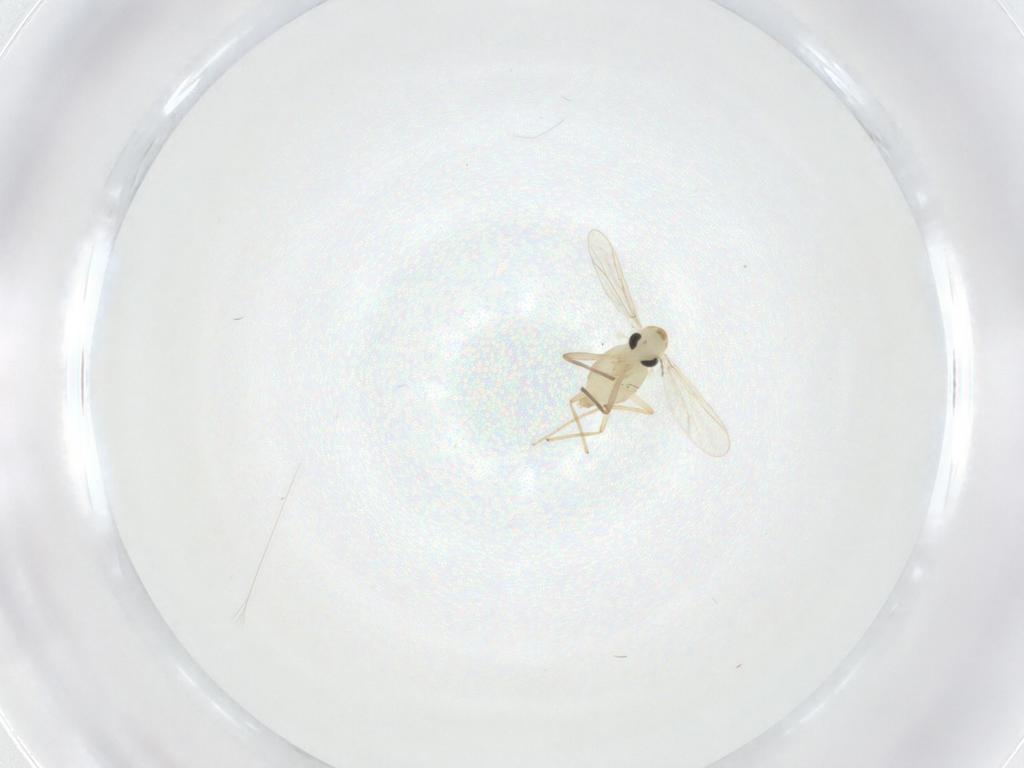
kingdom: Animalia
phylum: Arthropoda
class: Insecta
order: Diptera
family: Chironomidae
